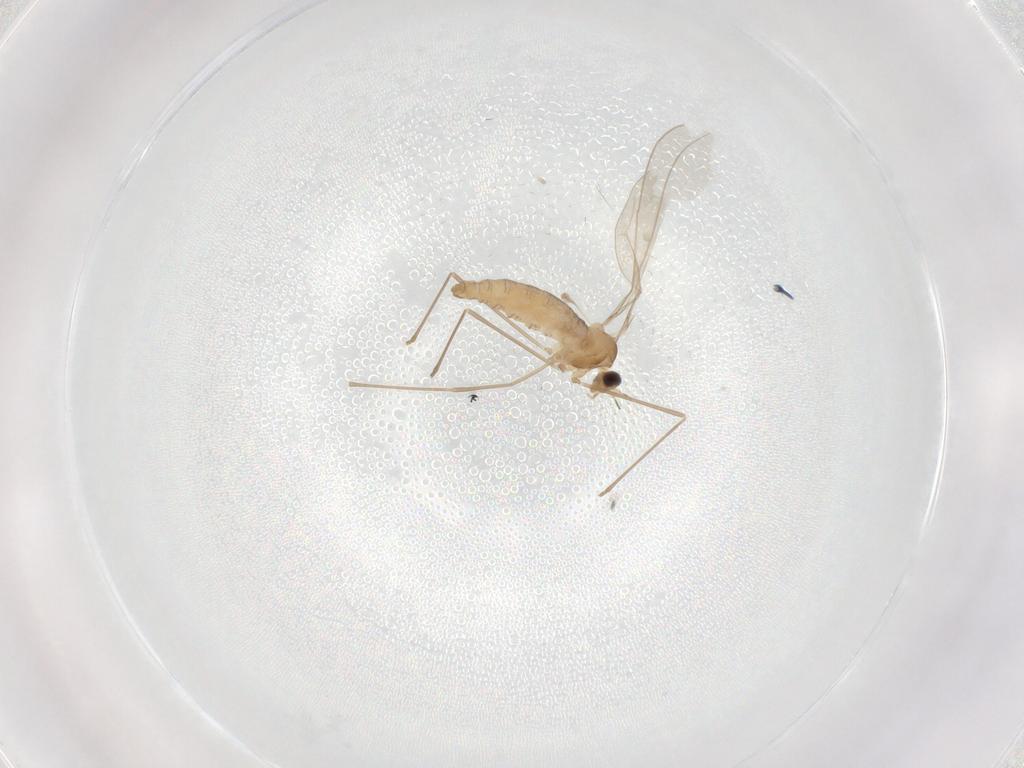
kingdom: Animalia
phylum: Arthropoda
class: Insecta
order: Diptera
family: Cecidomyiidae
